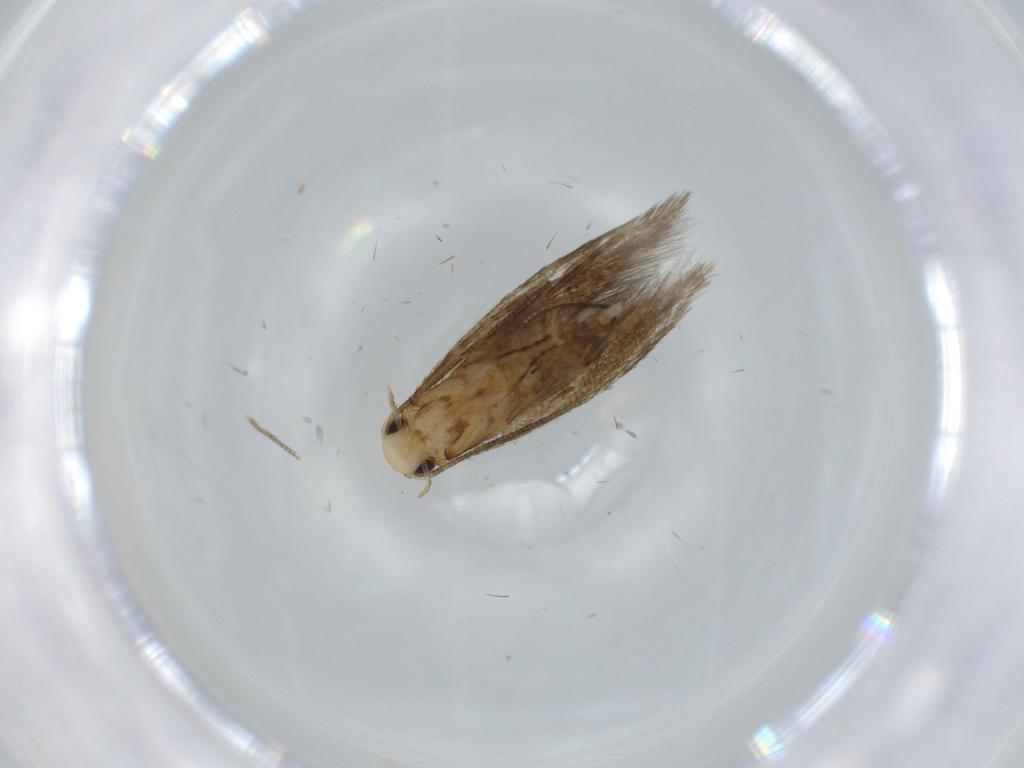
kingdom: Animalia
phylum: Arthropoda
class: Insecta
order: Lepidoptera
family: Tineidae
